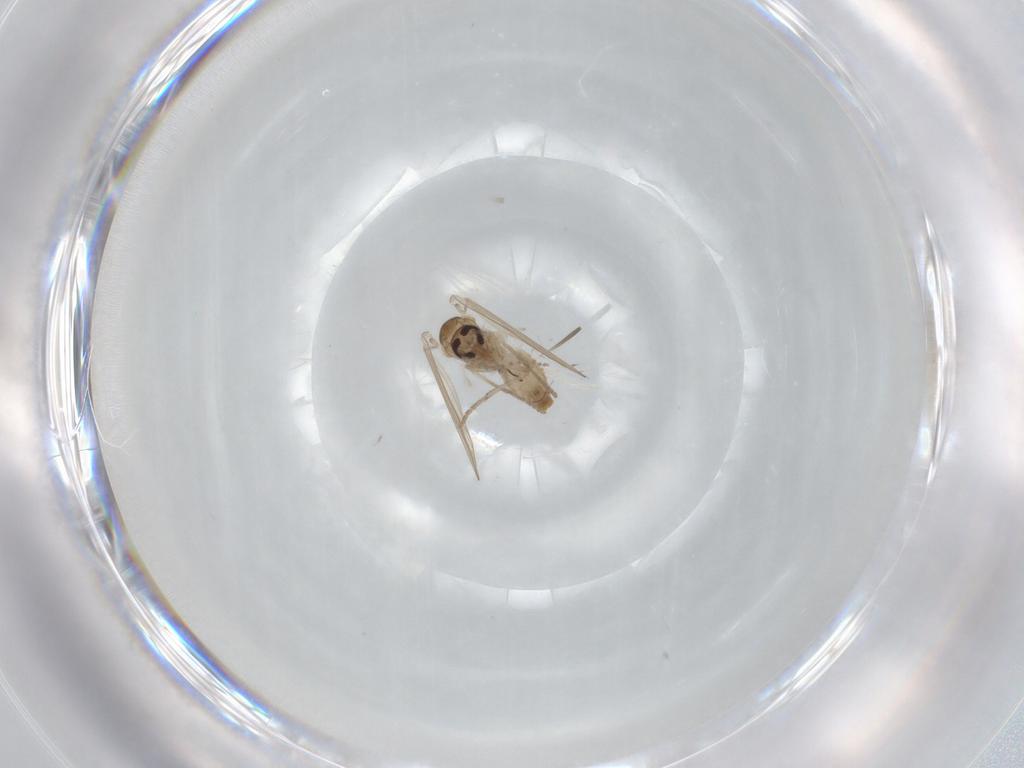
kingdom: Animalia
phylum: Arthropoda
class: Insecta
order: Diptera
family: Psychodidae
